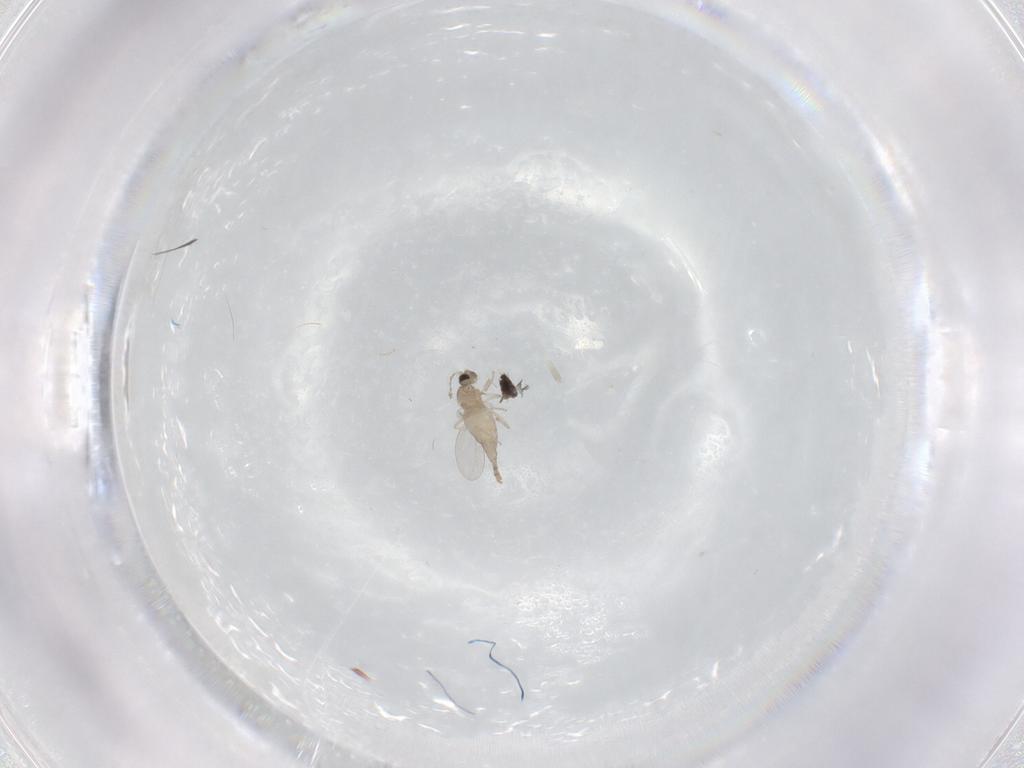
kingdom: Animalia
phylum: Arthropoda
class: Insecta
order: Diptera
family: Cecidomyiidae
